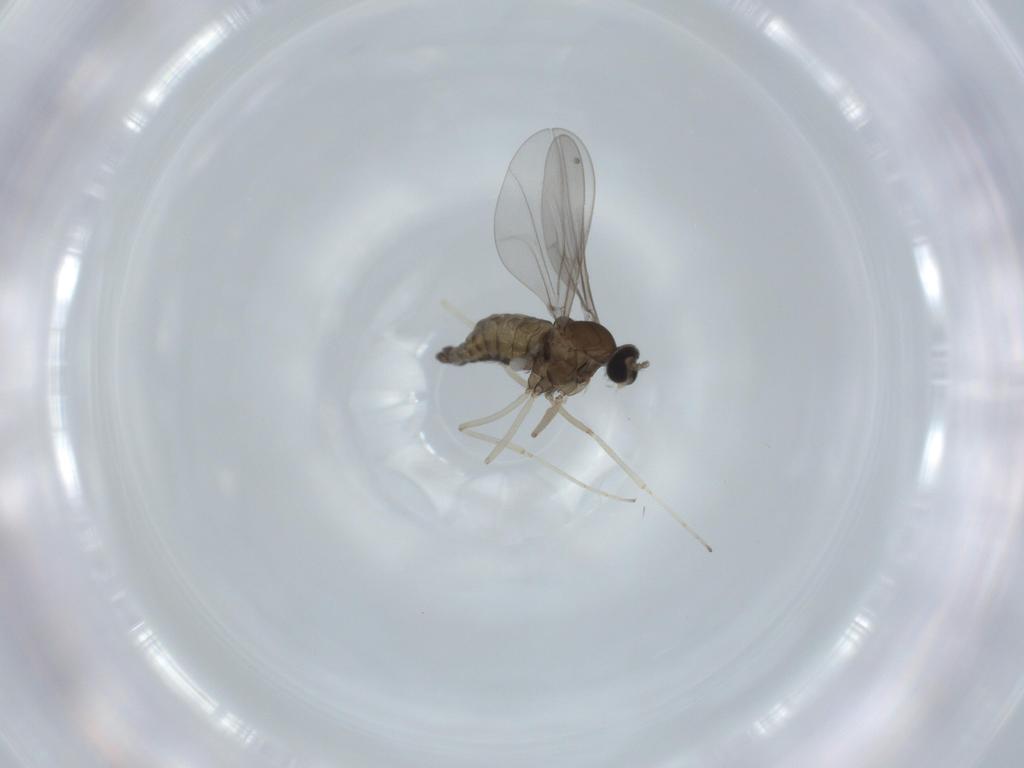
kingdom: Animalia
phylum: Arthropoda
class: Insecta
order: Diptera
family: Cecidomyiidae
